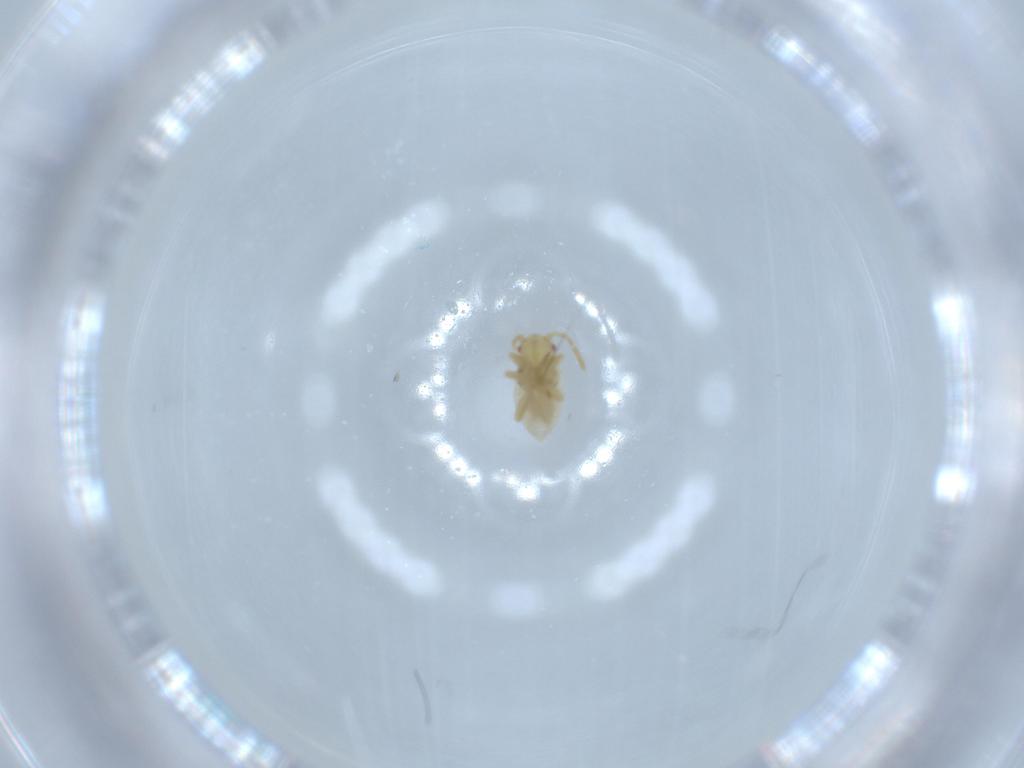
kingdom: Animalia
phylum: Arthropoda
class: Insecta
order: Hemiptera
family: Miridae
